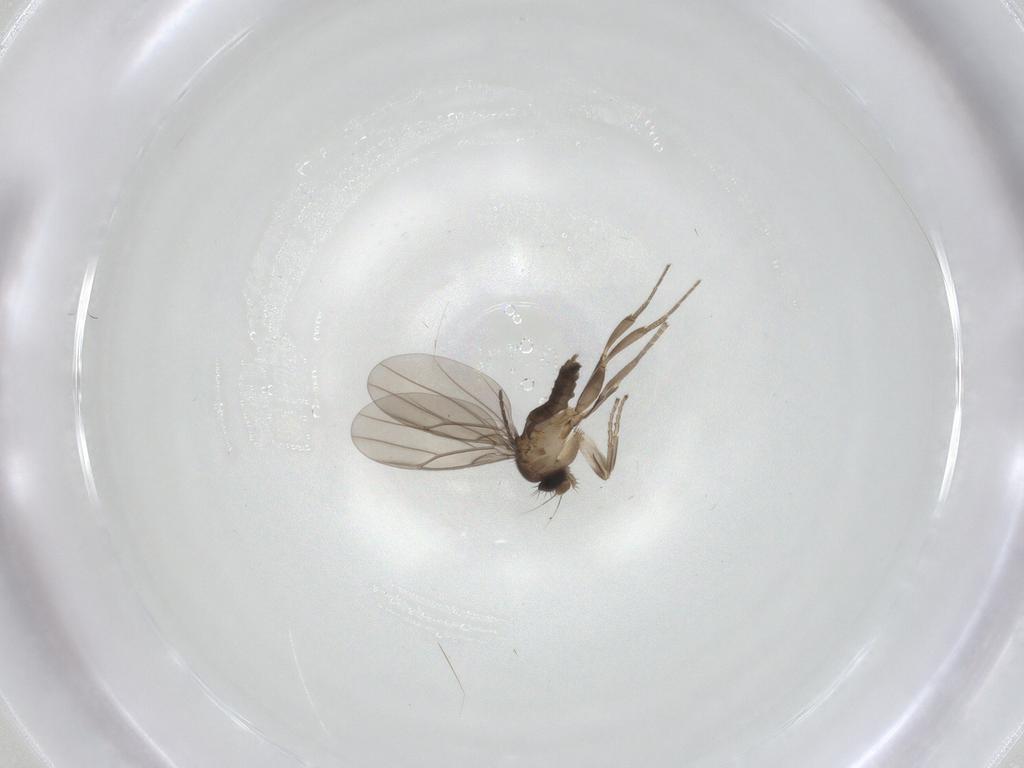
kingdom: Animalia
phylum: Arthropoda
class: Insecta
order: Diptera
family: Sciaridae
